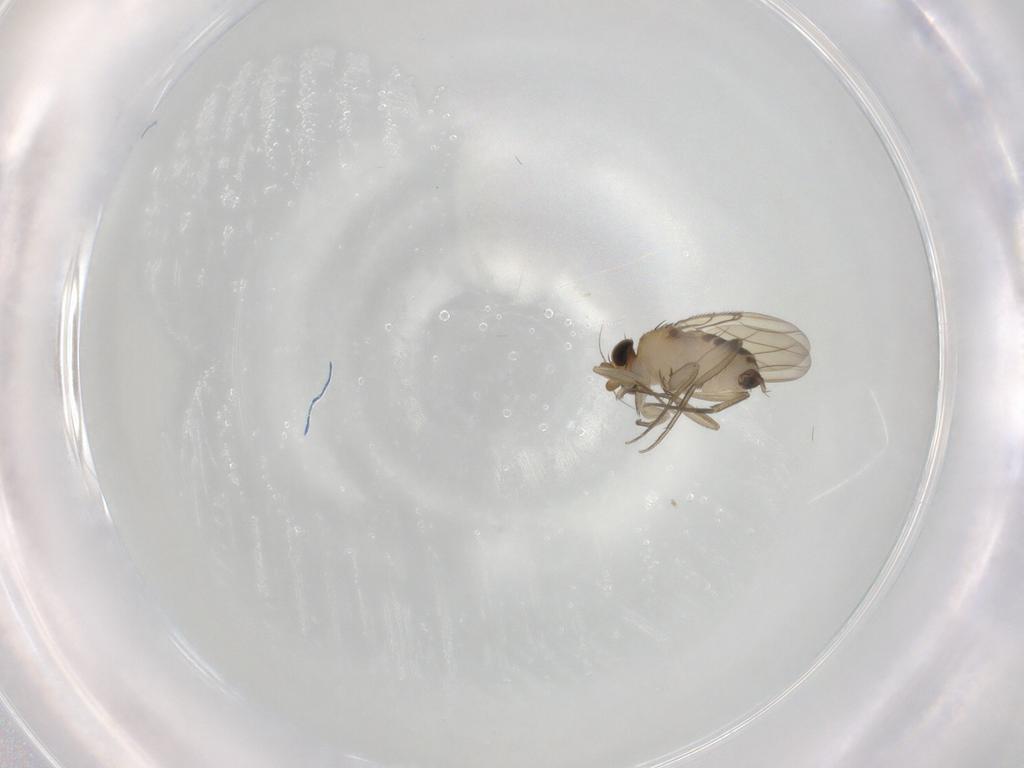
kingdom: Animalia
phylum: Arthropoda
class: Insecta
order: Diptera
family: Phoridae
